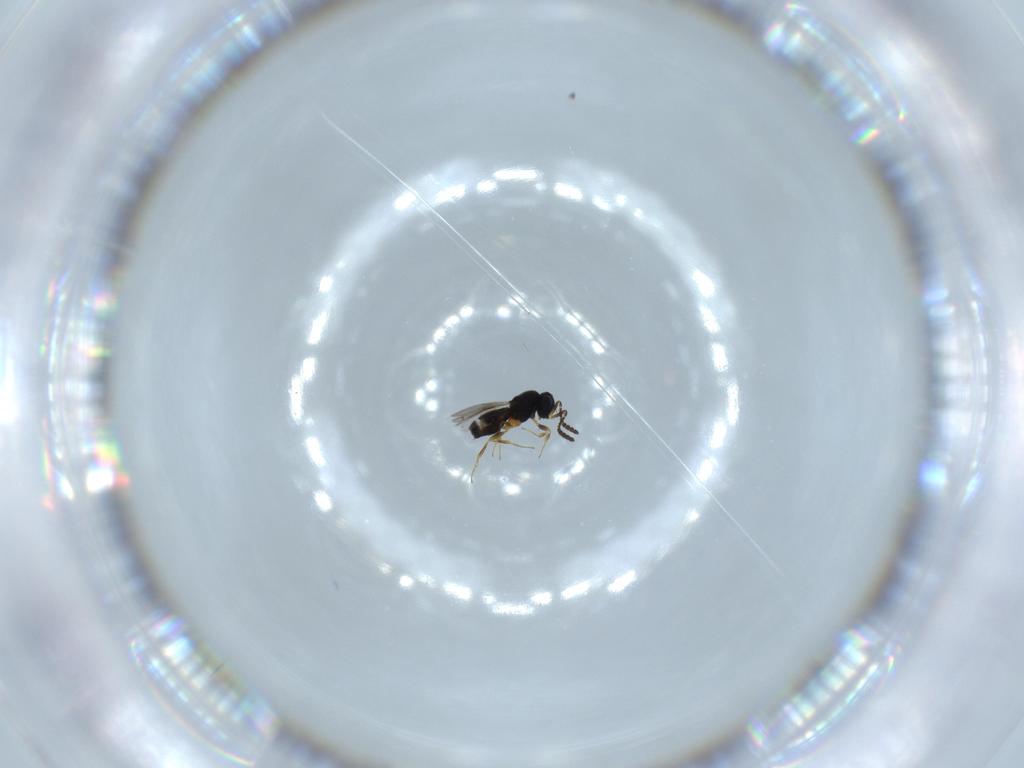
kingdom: Animalia
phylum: Arthropoda
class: Insecta
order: Hymenoptera
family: Scelionidae
